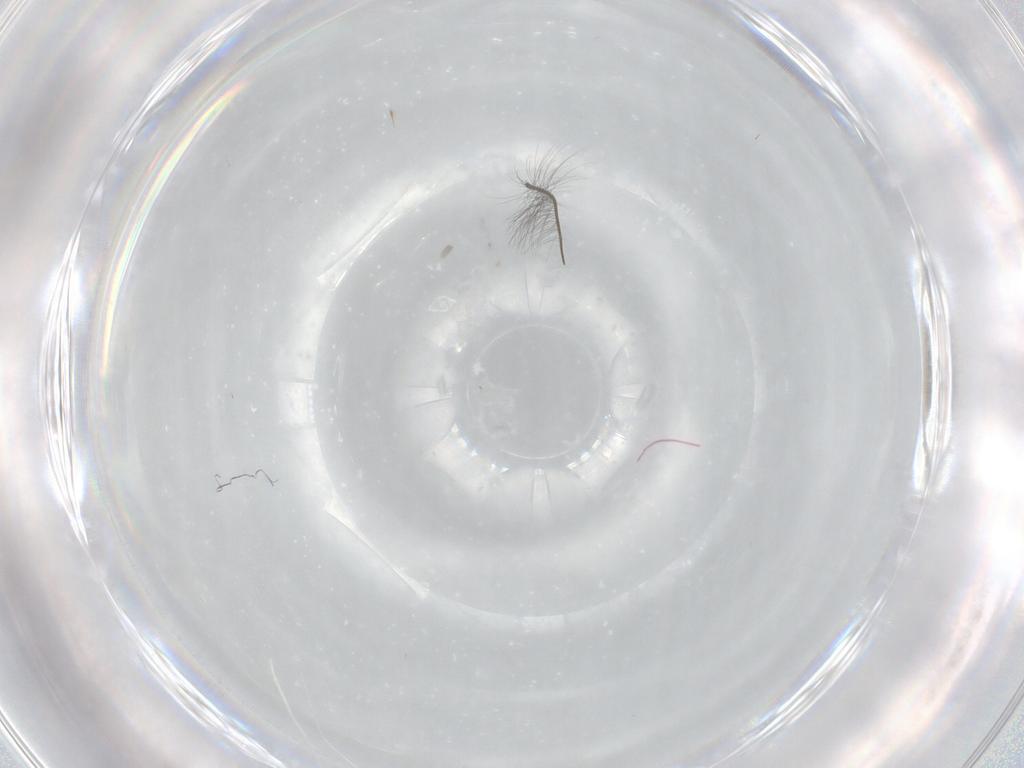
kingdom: Animalia
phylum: Arthropoda
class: Insecta
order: Diptera
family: Chironomidae
